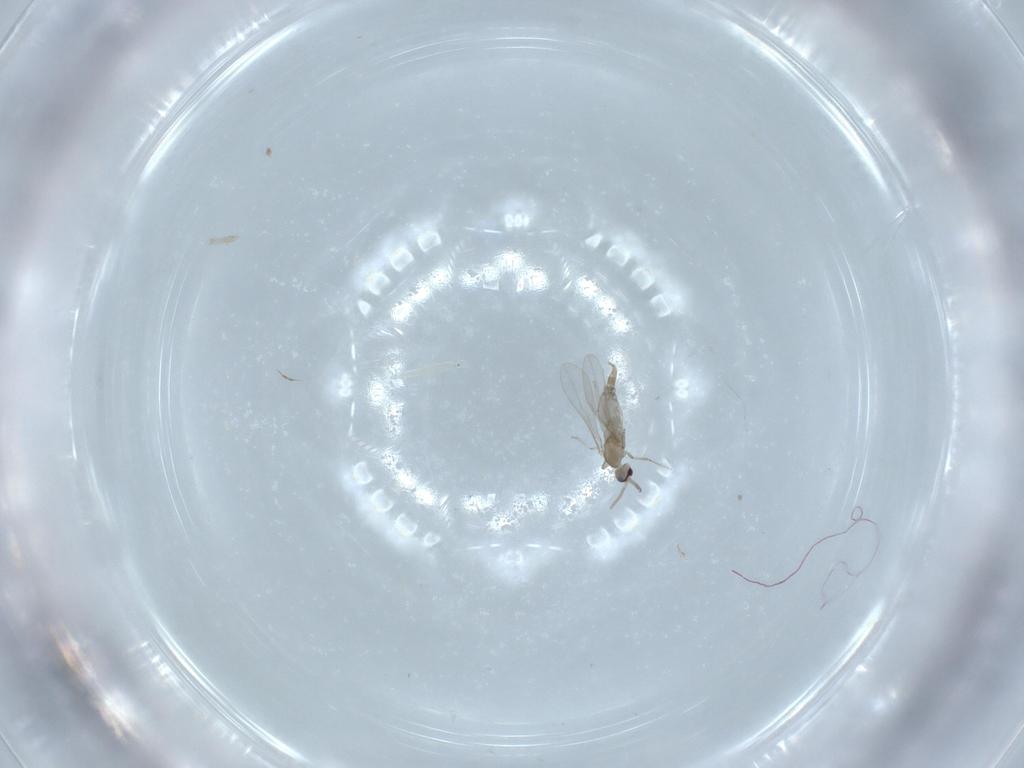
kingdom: Animalia
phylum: Arthropoda
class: Insecta
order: Diptera
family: Cecidomyiidae
